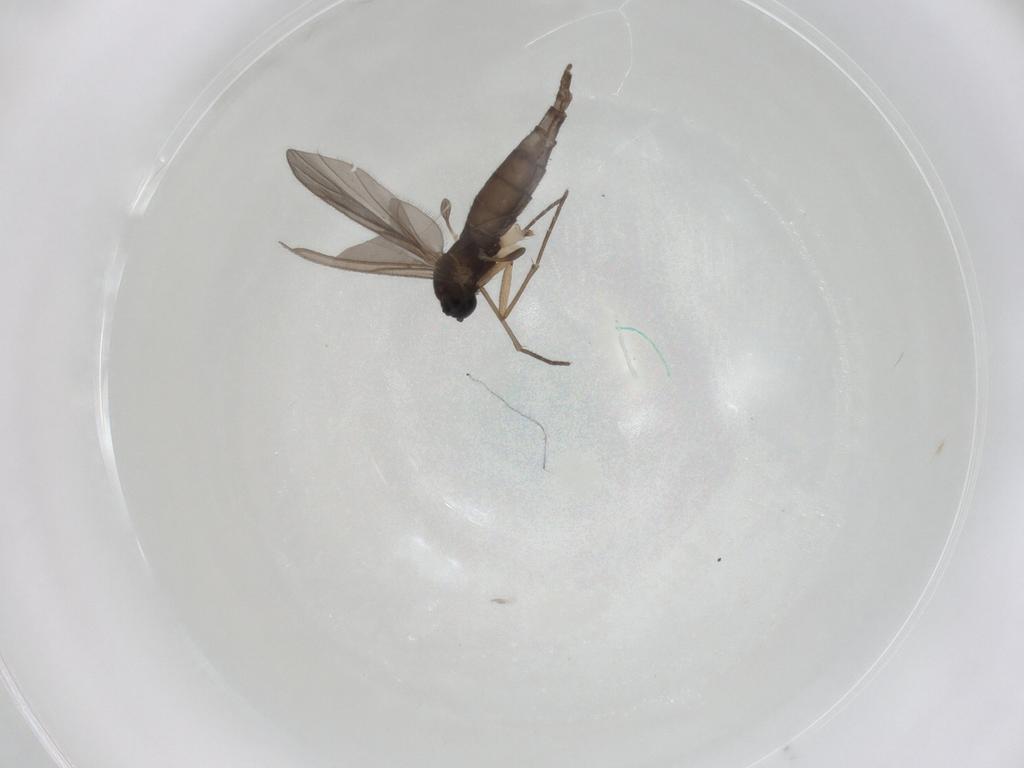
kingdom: Animalia
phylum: Arthropoda
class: Insecta
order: Diptera
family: Sciaridae
